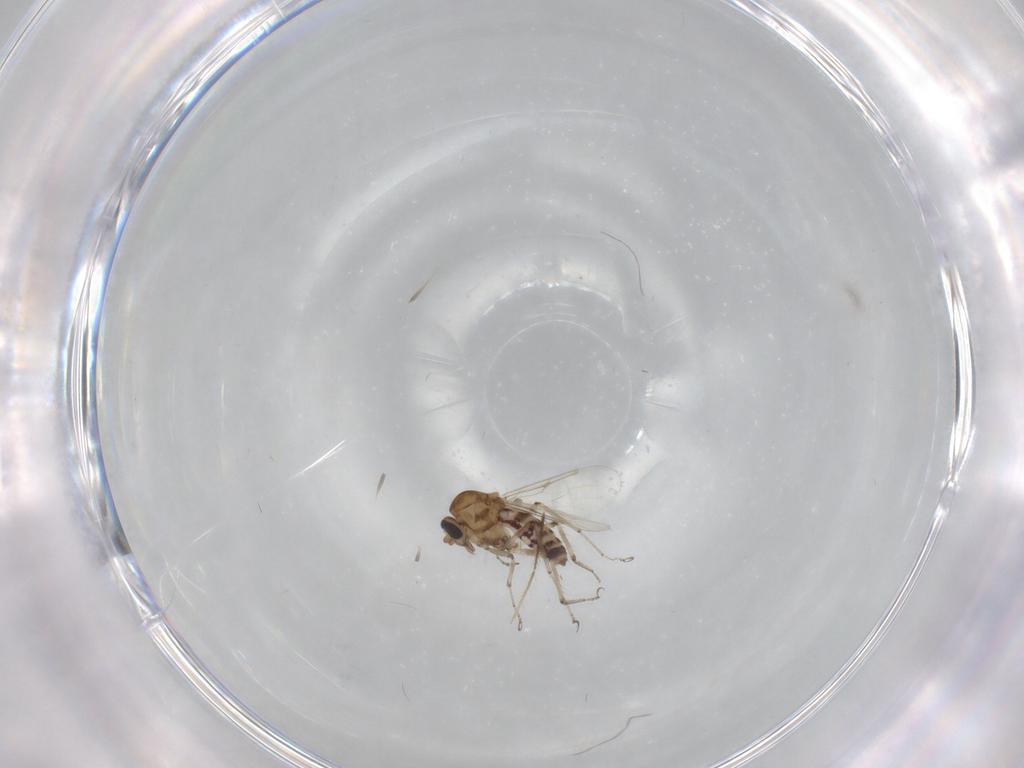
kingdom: Animalia
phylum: Arthropoda
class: Insecta
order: Diptera
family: Ceratopogonidae
